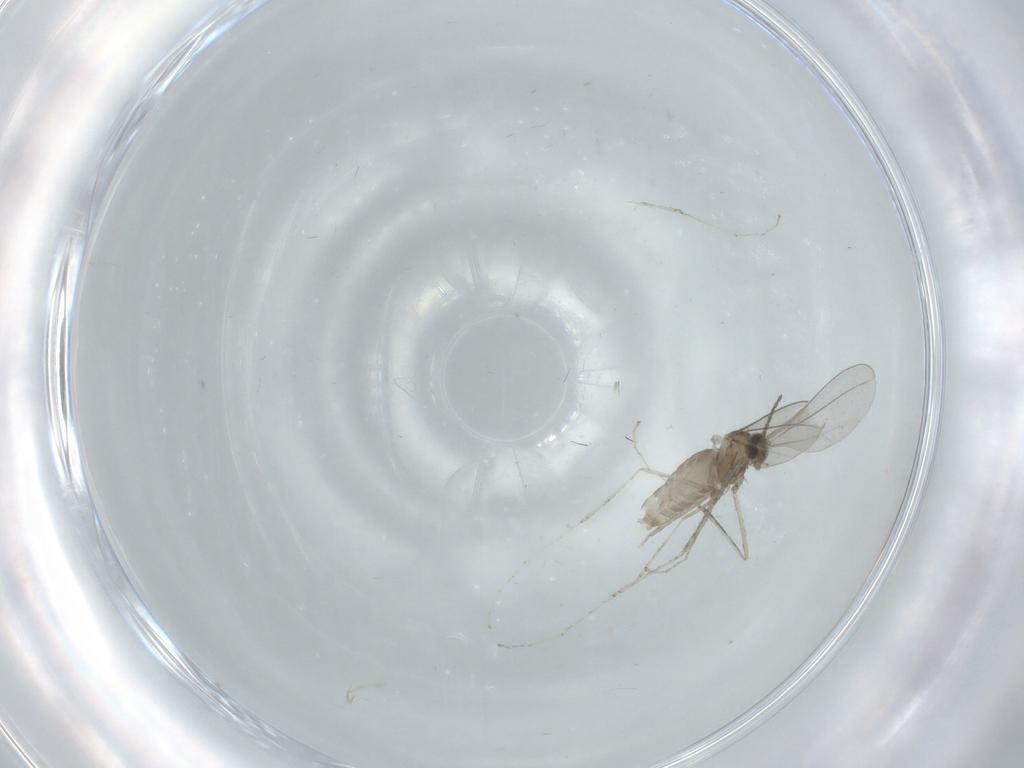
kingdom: Animalia
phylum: Arthropoda
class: Insecta
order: Diptera
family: Cecidomyiidae
